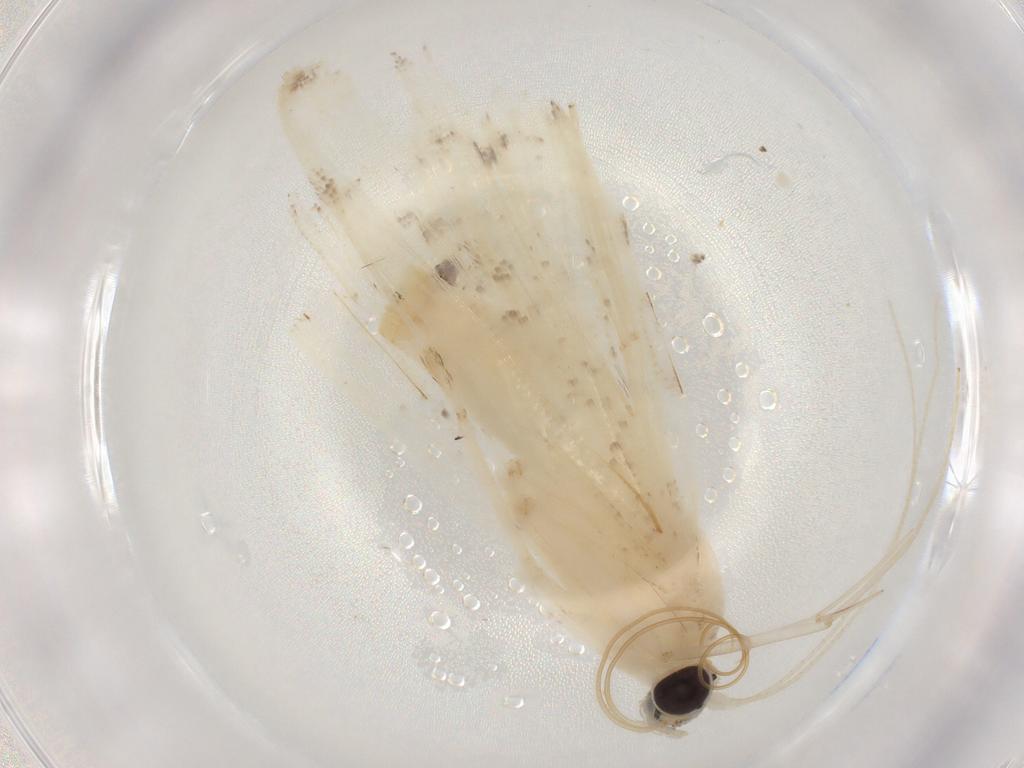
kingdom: Animalia
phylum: Arthropoda
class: Insecta
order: Lepidoptera
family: Crambidae
